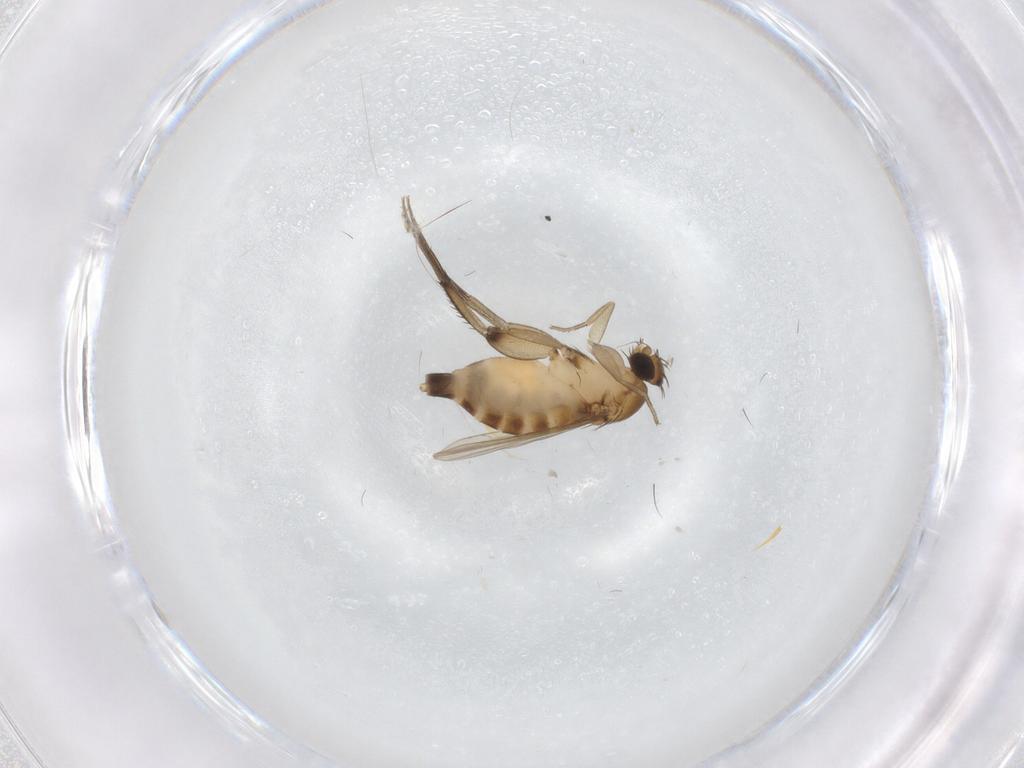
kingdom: Animalia
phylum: Arthropoda
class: Insecta
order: Diptera
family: Phoridae
